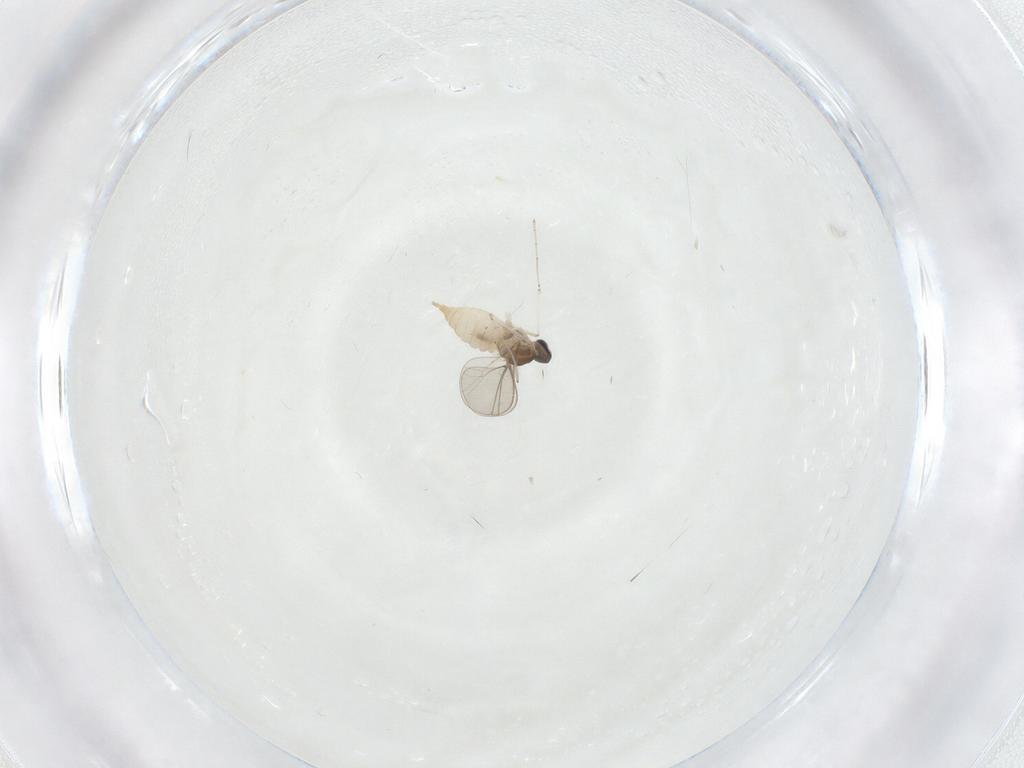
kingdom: Animalia
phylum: Arthropoda
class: Insecta
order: Diptera
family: Cecidomyiidae
